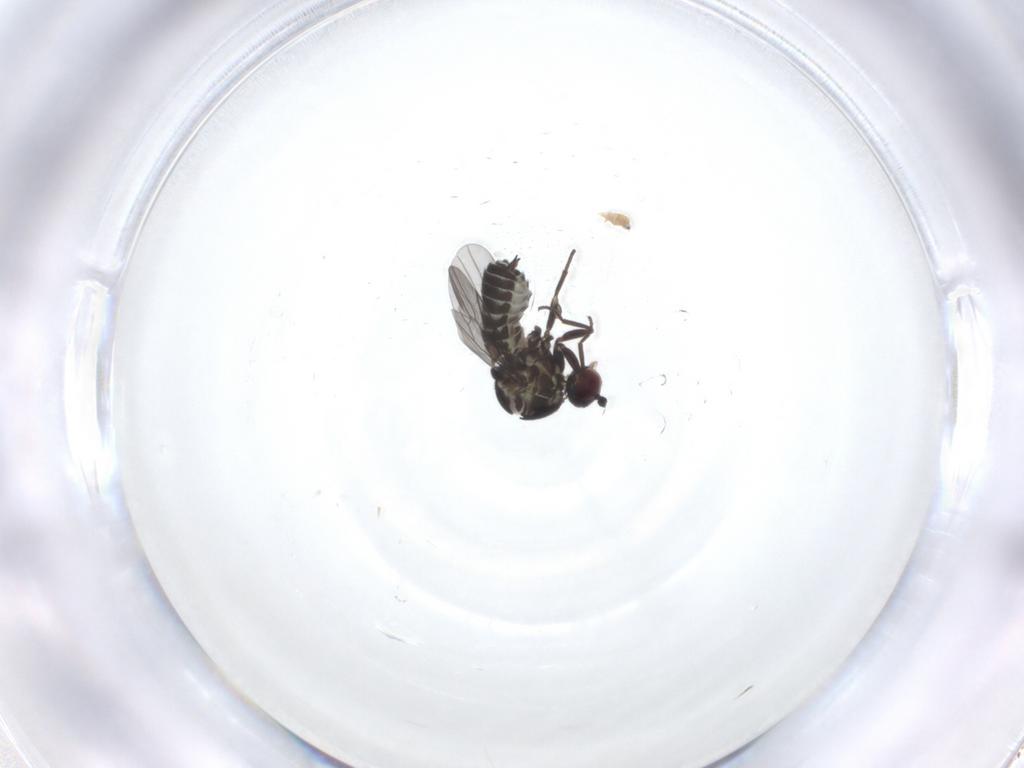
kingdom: Animalia
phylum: Arthropoda
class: Insecta
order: Diptera
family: Mythicomyiidae
